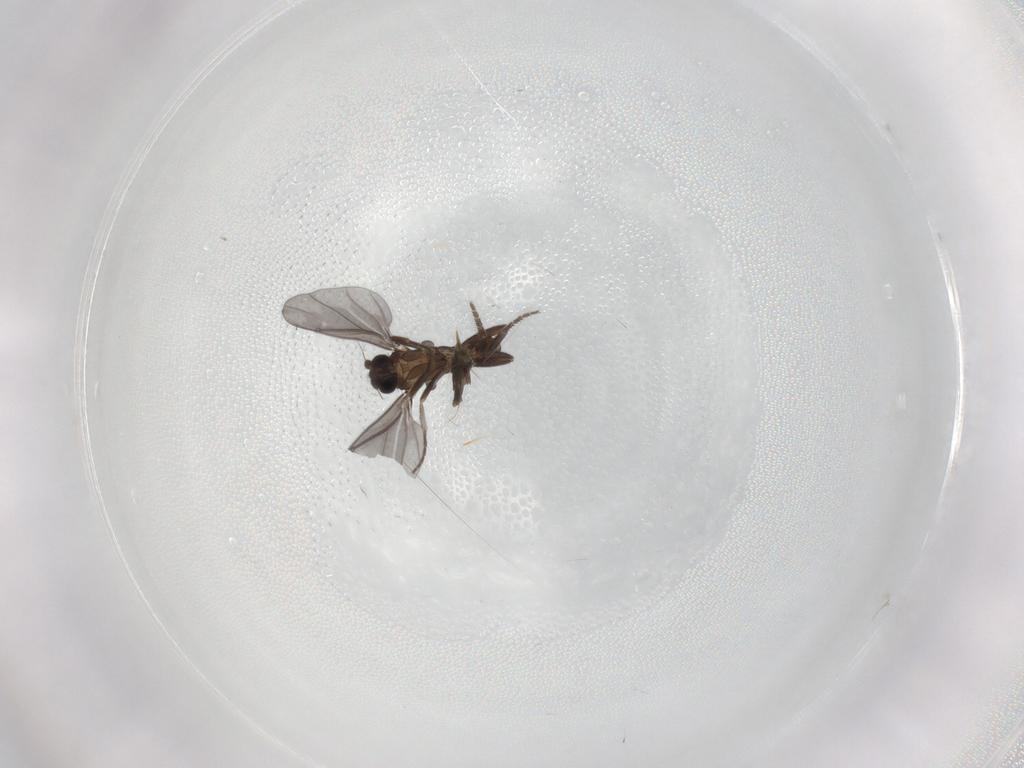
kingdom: Animalia
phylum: Arthropoda
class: Insecta
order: Diptera
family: Phoridae
